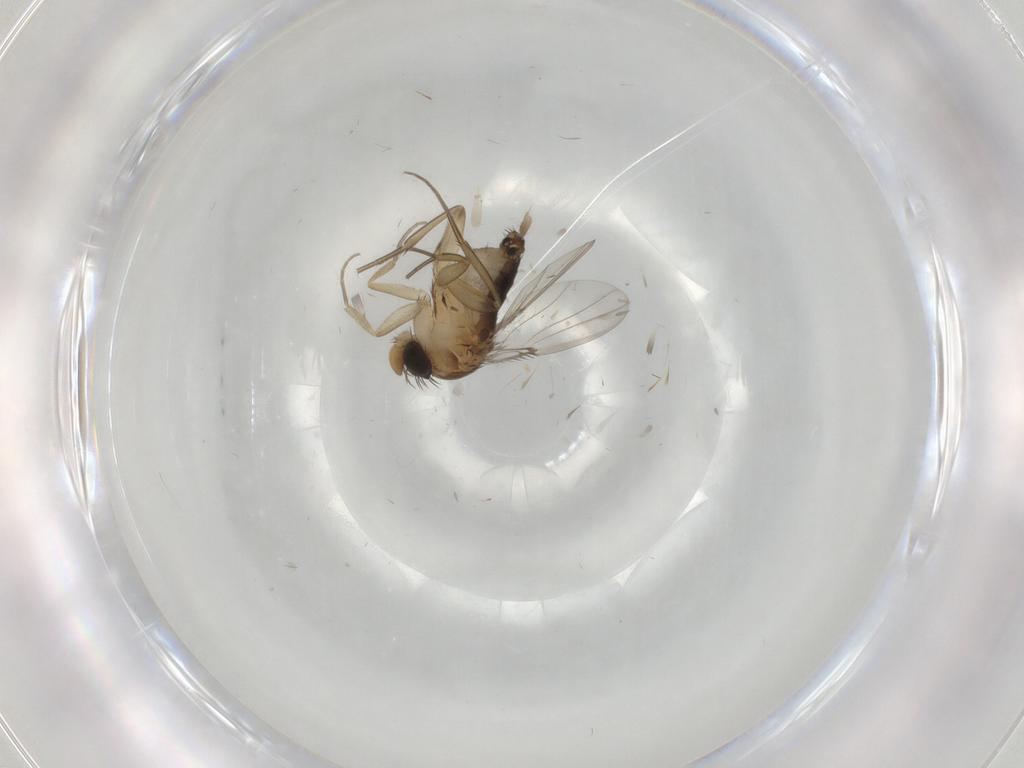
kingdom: Animalia
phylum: Arthropoda
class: Insecta
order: Diptera
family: Phoridae
